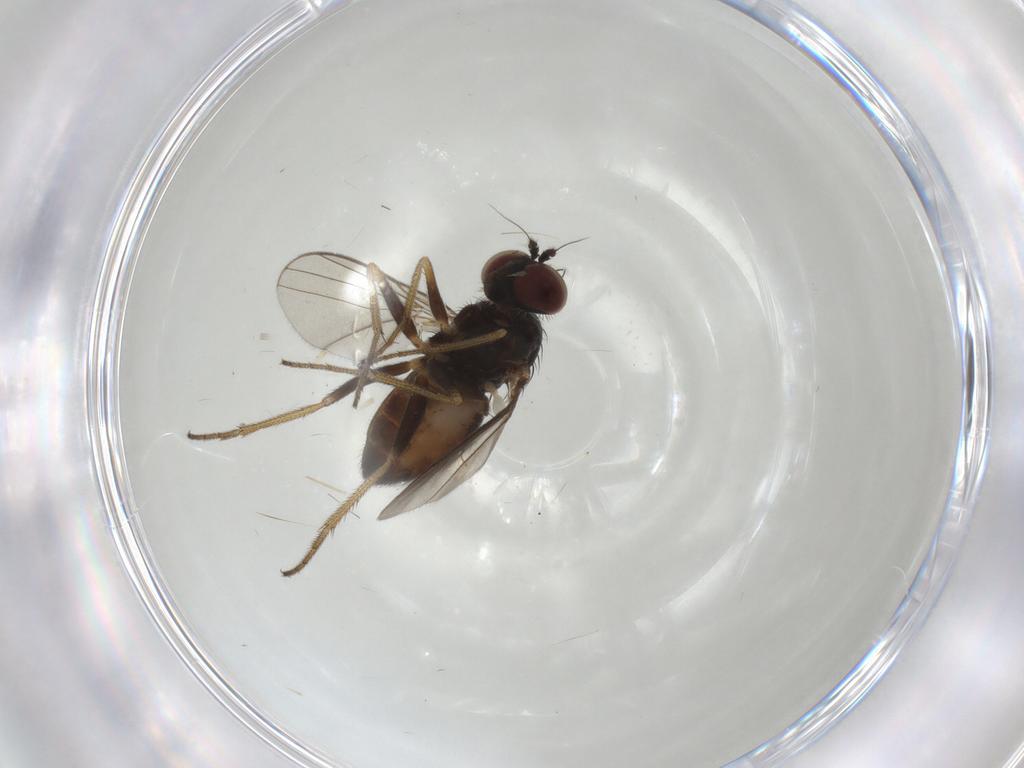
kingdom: Animalia
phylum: Arthropoda
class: Insecta
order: Diptera
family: Cecidomyiidae
